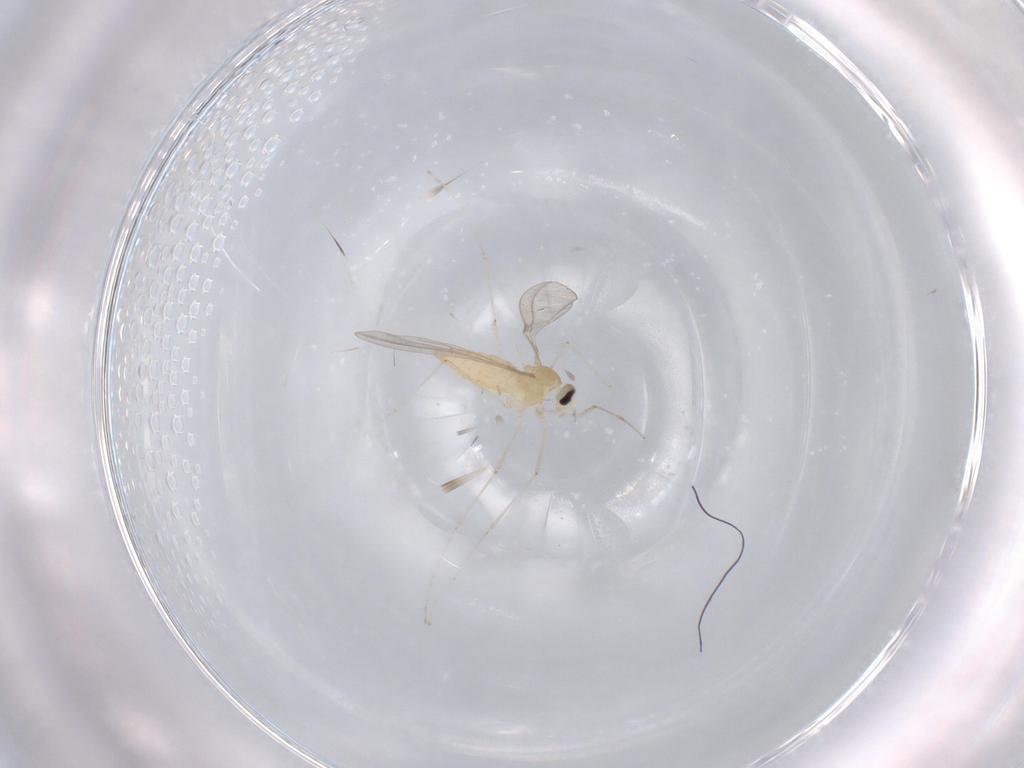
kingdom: Animalia
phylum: Arthropoda
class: Insecta
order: Diptera
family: Cecidomyiidae
